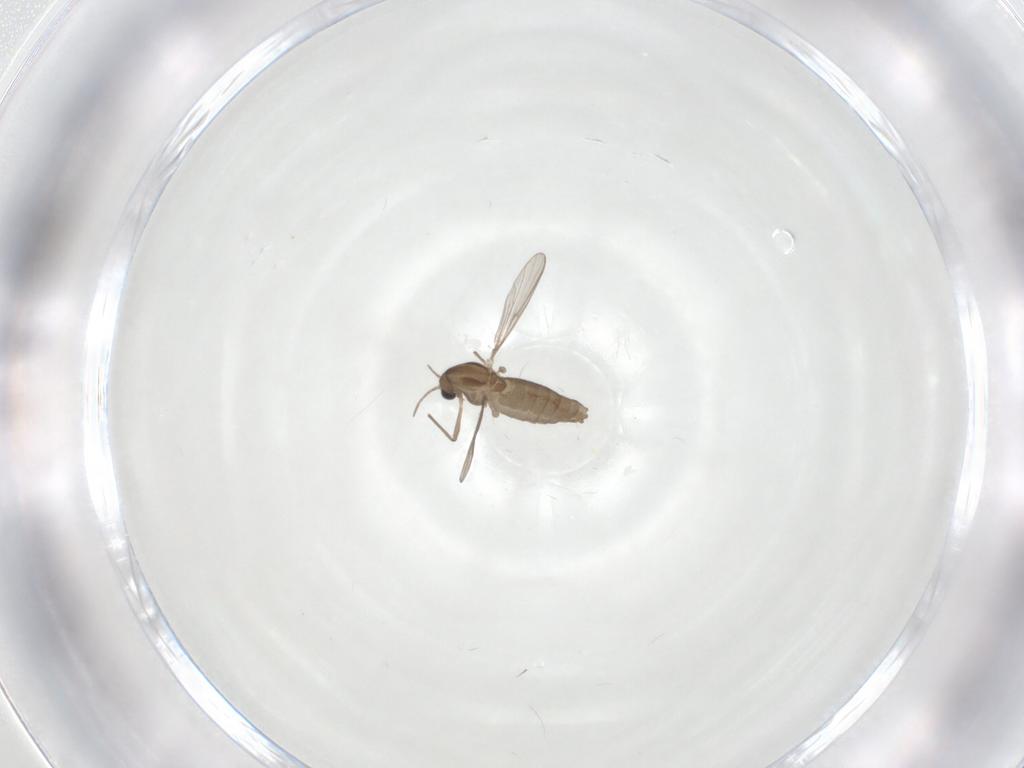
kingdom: Animalia
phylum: Arthropoda
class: Insecta
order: Diptera
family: Chironomidae
